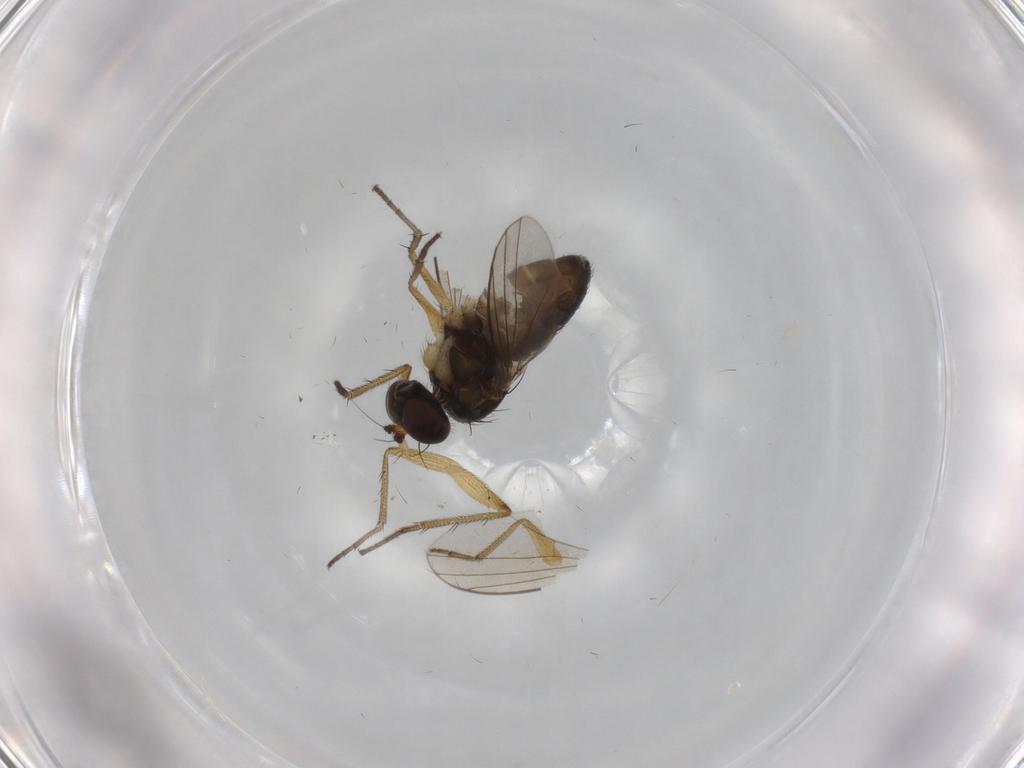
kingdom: Animalia
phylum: Arthropoda
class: Insecta
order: Diptera
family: Dolichopodidae
